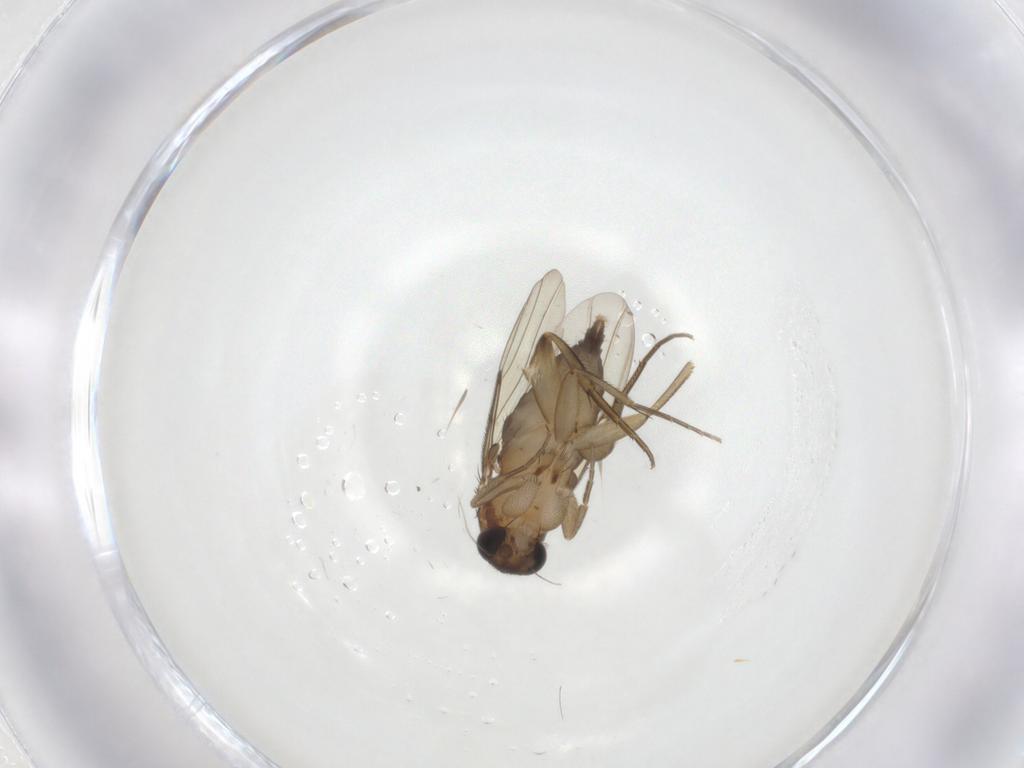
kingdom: Animalia
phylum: Arthropoda
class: Insecta
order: Diptera
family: Phoridae
